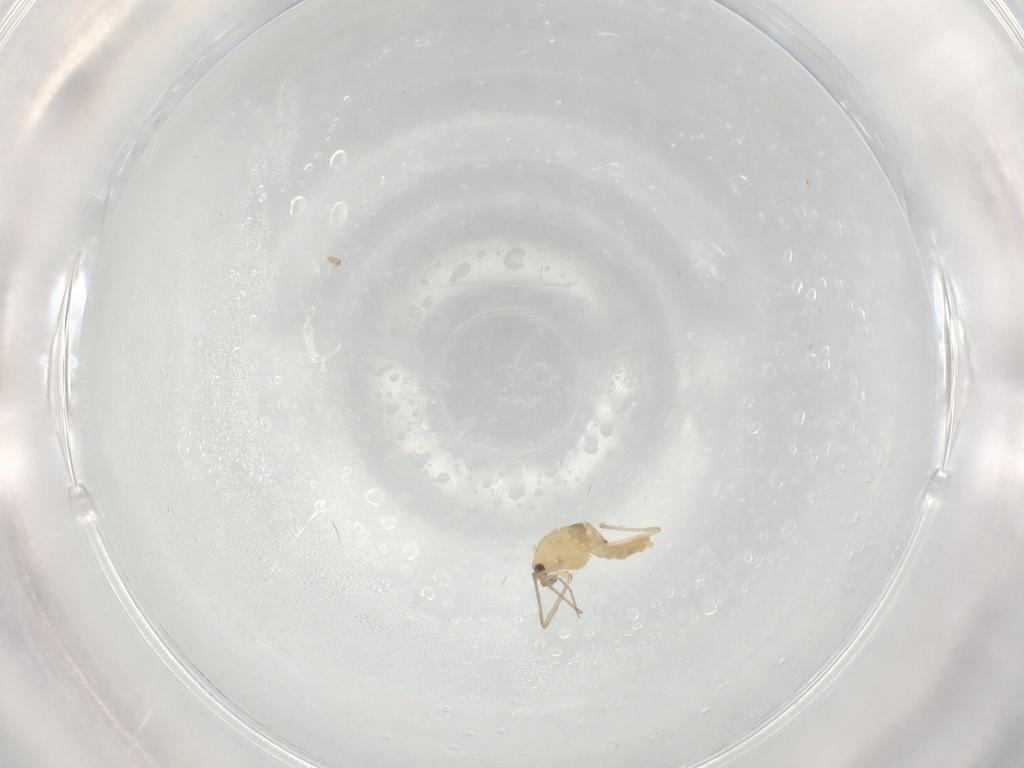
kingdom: Animalia
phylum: Arthropoda
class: Insecta
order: Diptera
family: Chironomidae
